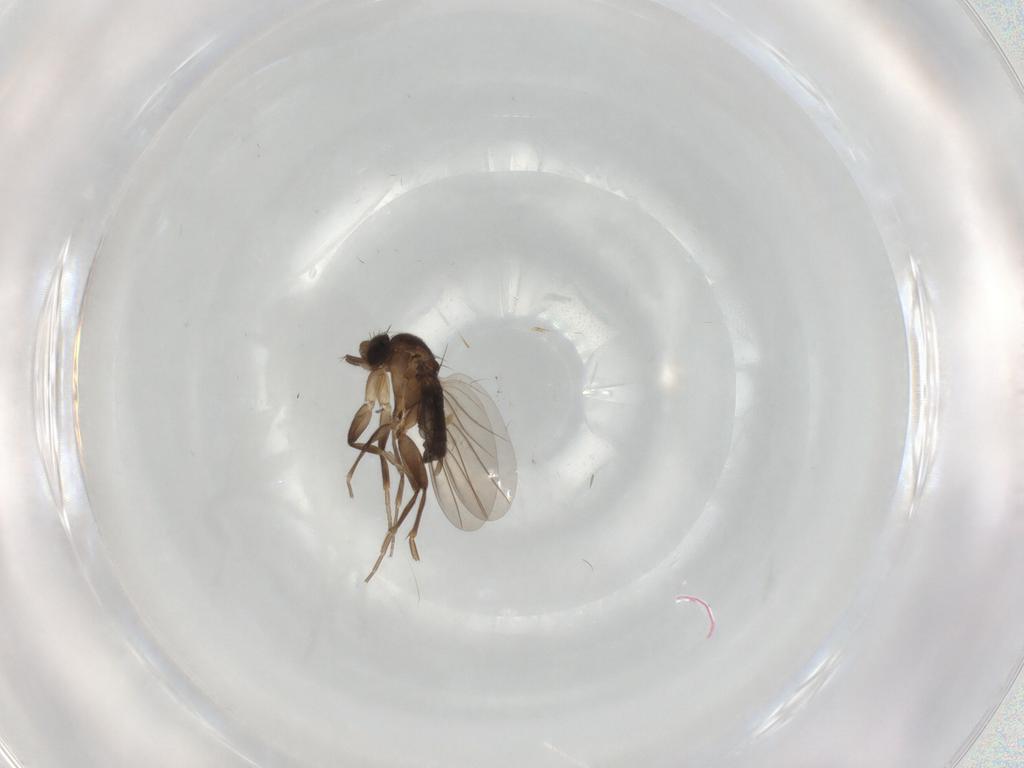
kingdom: Animalia
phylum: Arthropoda
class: Insecta
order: Diptera
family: Phoridae
